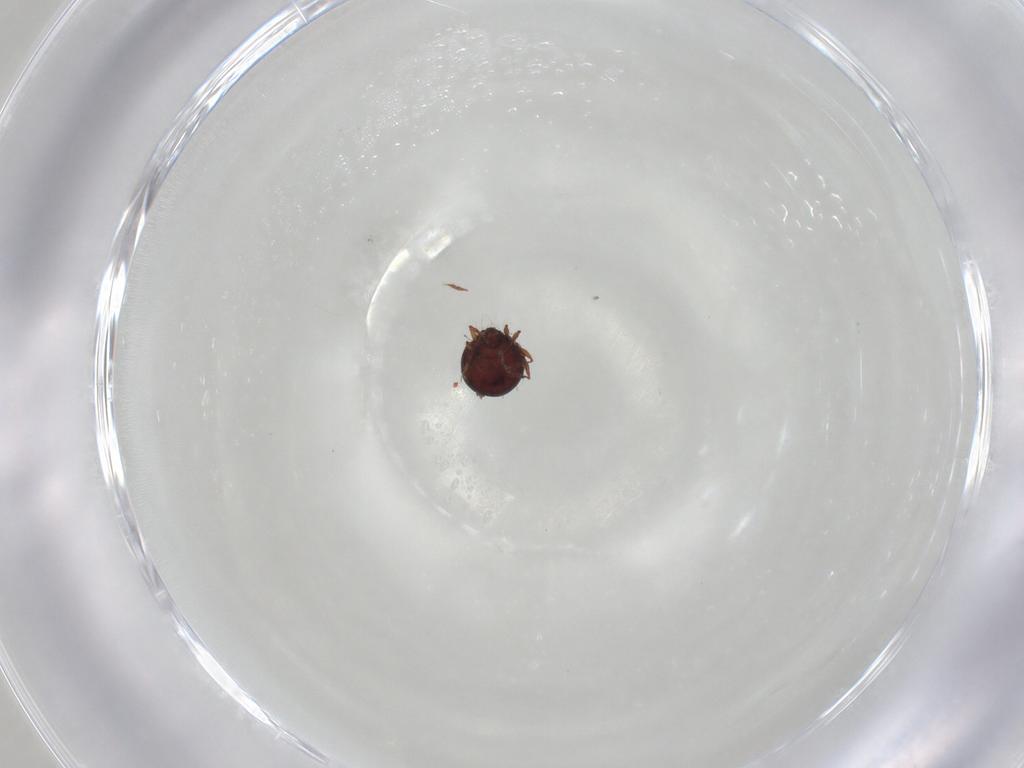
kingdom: Animalia
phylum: Arthropoda
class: Arachnida
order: Sarcoptiformes
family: Caloppiidae
